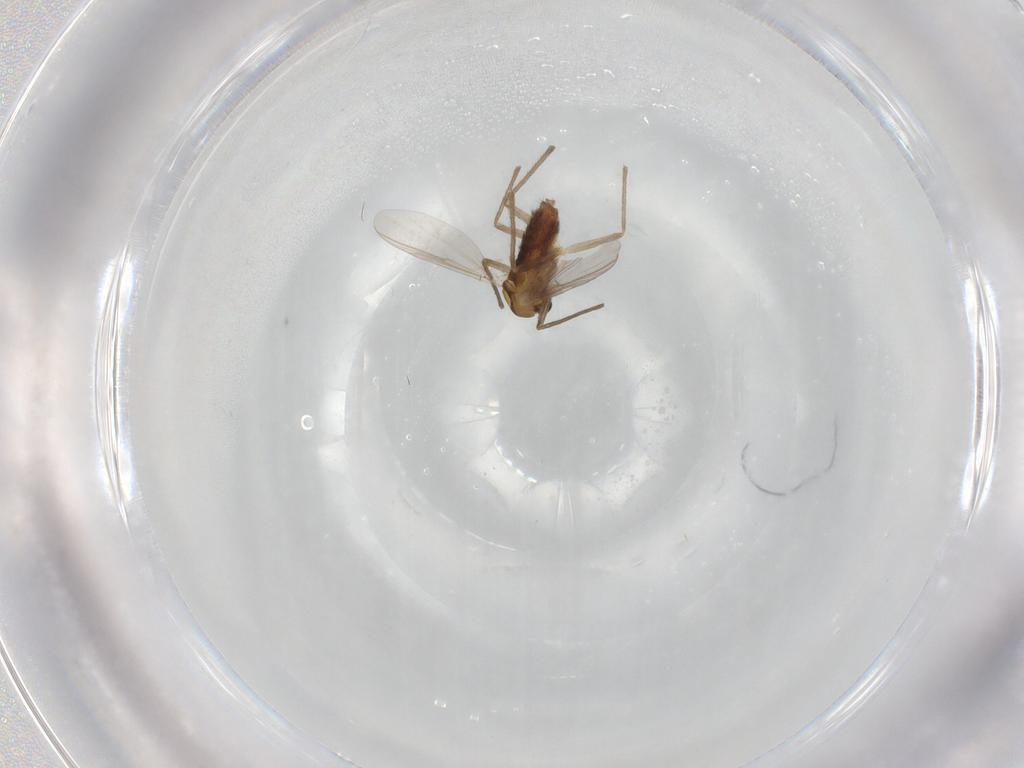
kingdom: Animalia
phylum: Arthropoda
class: Insecta
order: Diptera
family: Chironomidae
